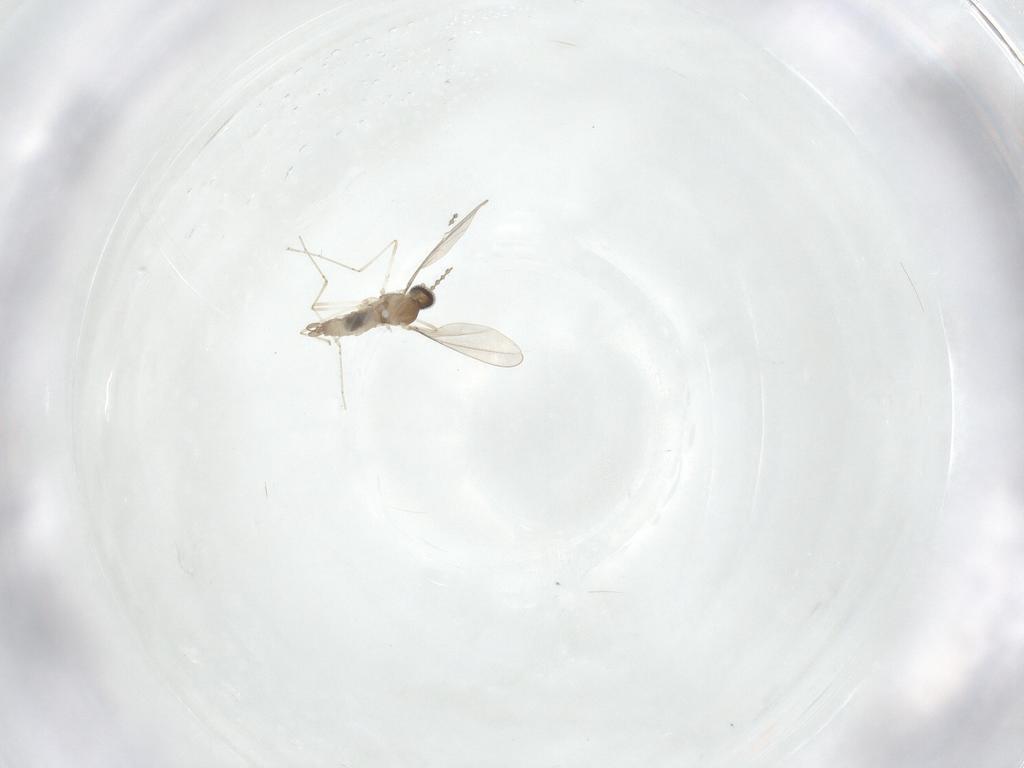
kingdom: Animalia
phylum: Arthropoda
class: Insecta
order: Diptera
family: Cecidomyiidae
